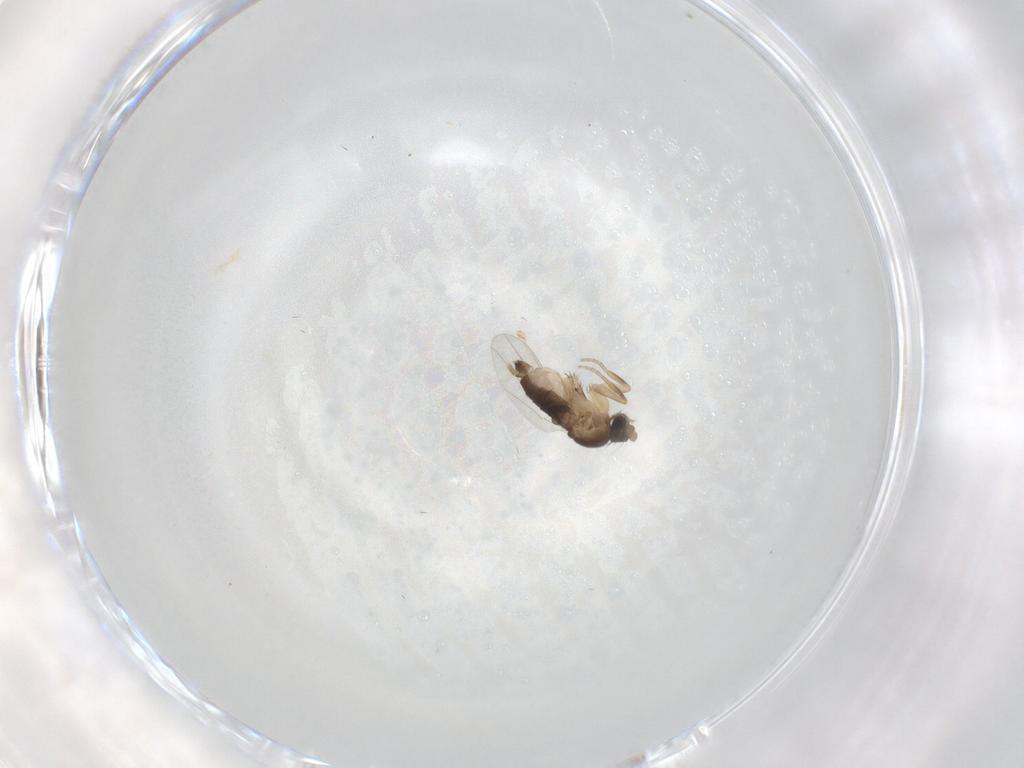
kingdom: Animalia
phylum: Arthropoda
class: Insecta
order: Diptera
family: Phoridae
